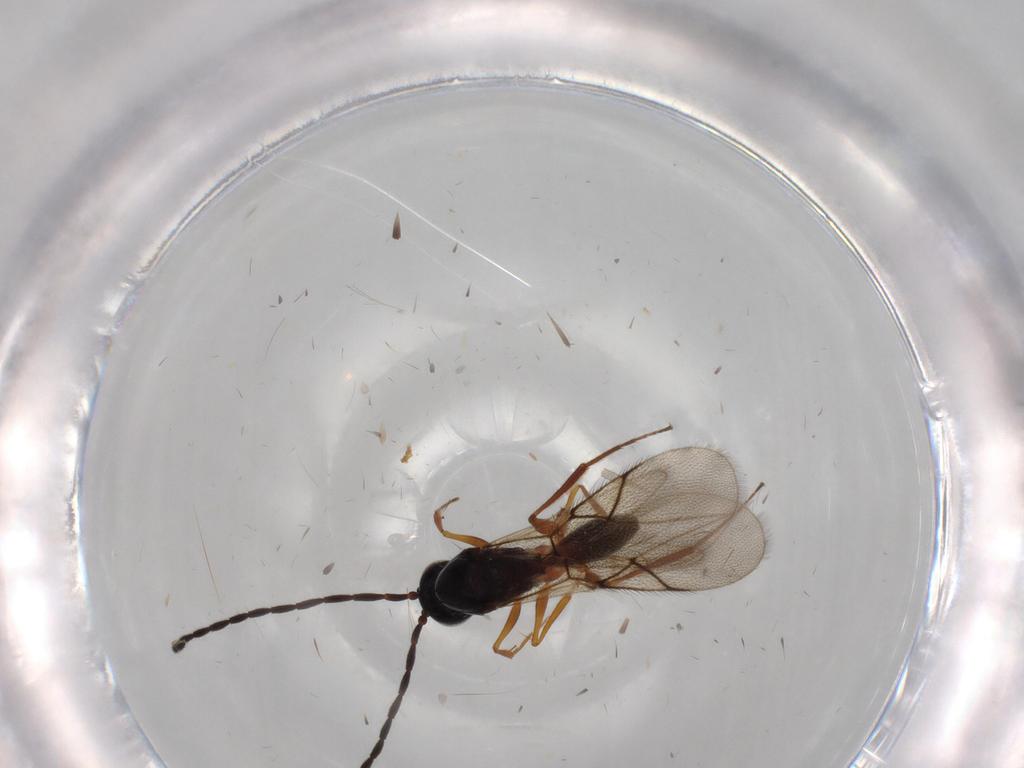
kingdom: Animalia
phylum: Arthropoda
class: Insecta
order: Hymenoptera
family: Figitidae
